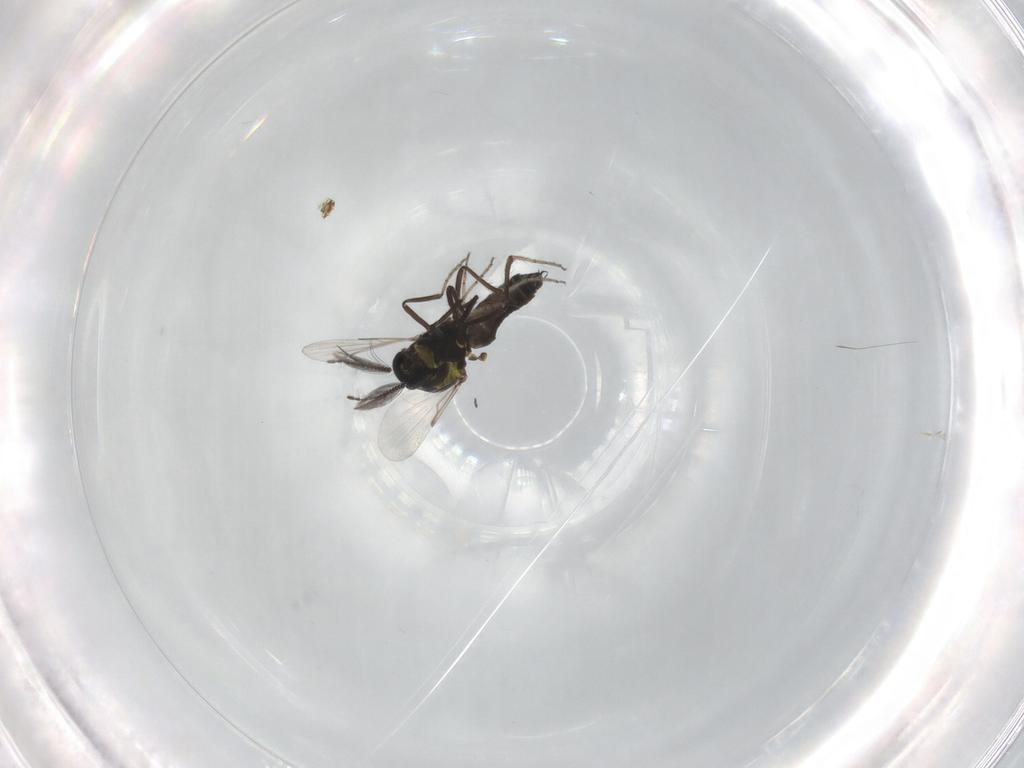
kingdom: Animalia
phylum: Arthropoda
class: Insecta
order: Diptera
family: Ceratopogonidae
